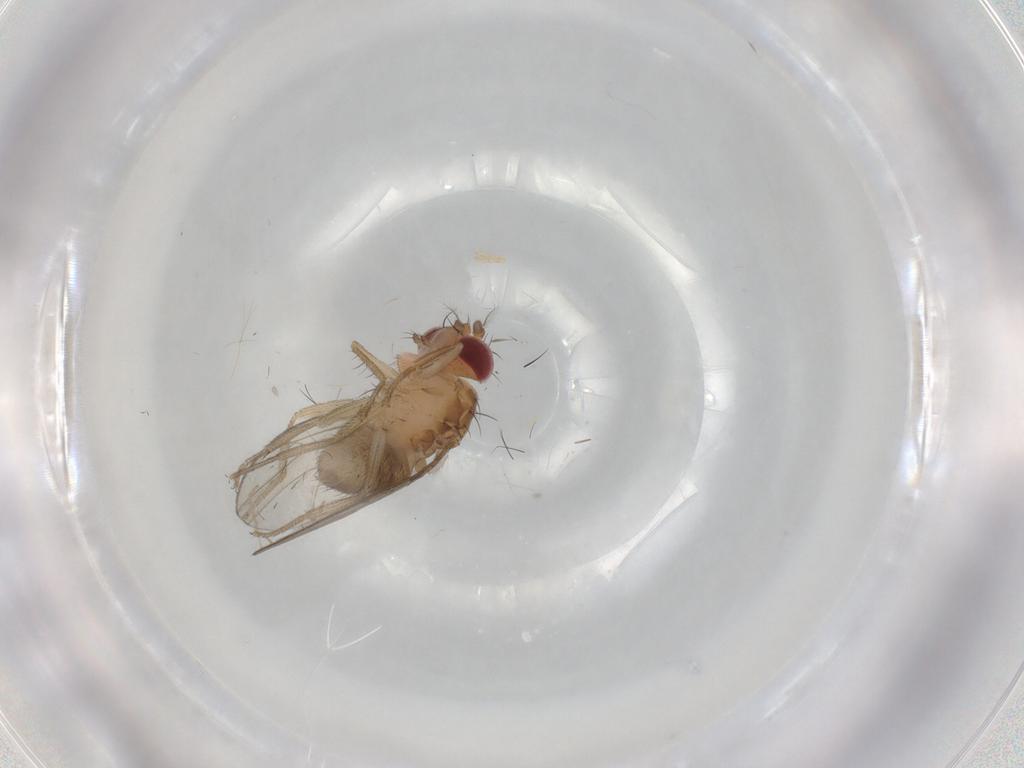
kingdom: Animalia
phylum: Arthropoda
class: Insecta
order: Diptera
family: Drosophilidae
